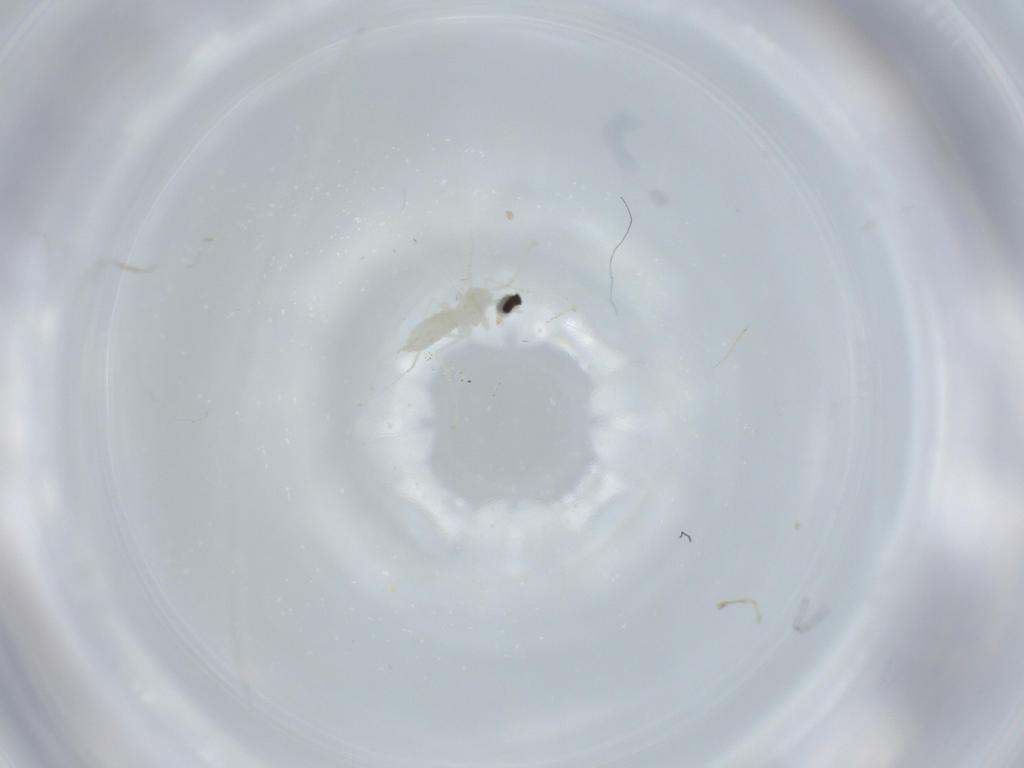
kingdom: Animalia
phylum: Arthropoda
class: Insecta
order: Diptera
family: Cecidomyiidae
